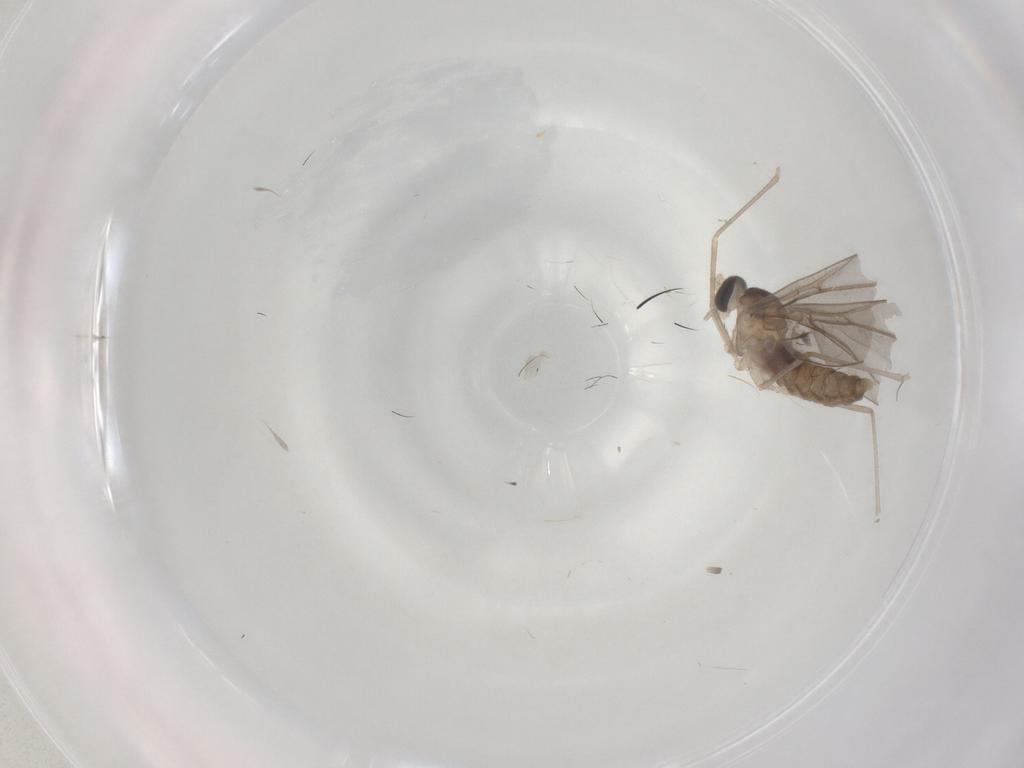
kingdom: Animalia
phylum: Arthropoda
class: Insecta
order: Diptera
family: Cecidomyiidae
